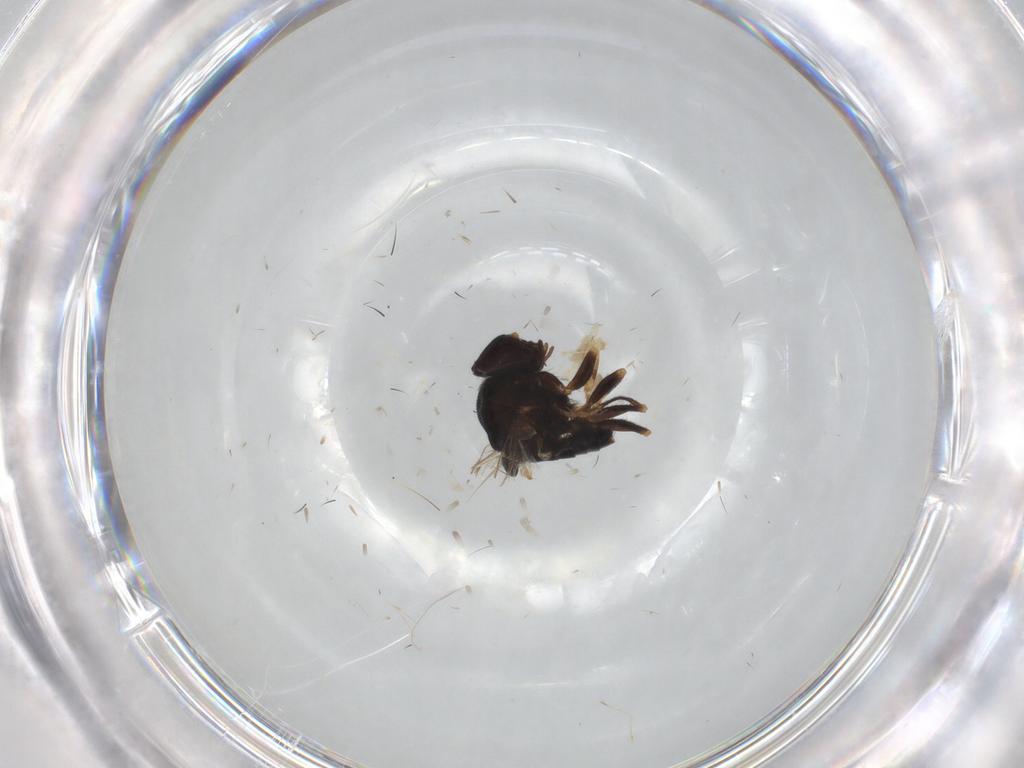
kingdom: Animalia
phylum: Arthropoda
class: Insecta
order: Diptera
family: Chloropidae
